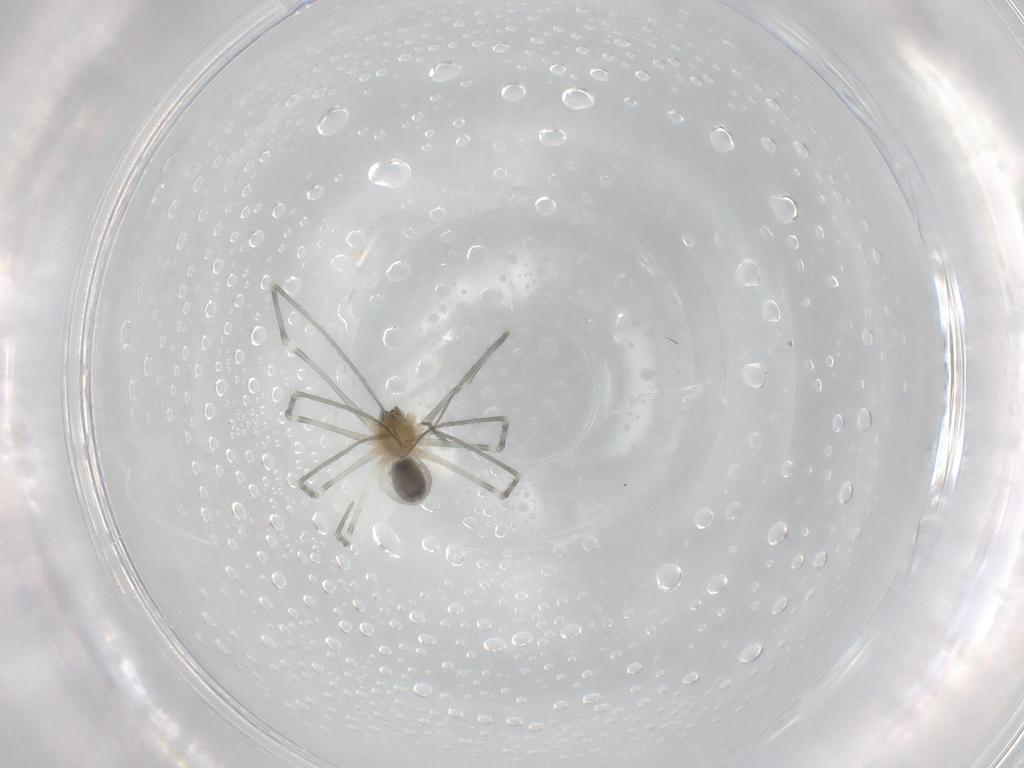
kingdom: Animalia
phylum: Arthropoda
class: Arachnida
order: Araneae
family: Pholcidae
